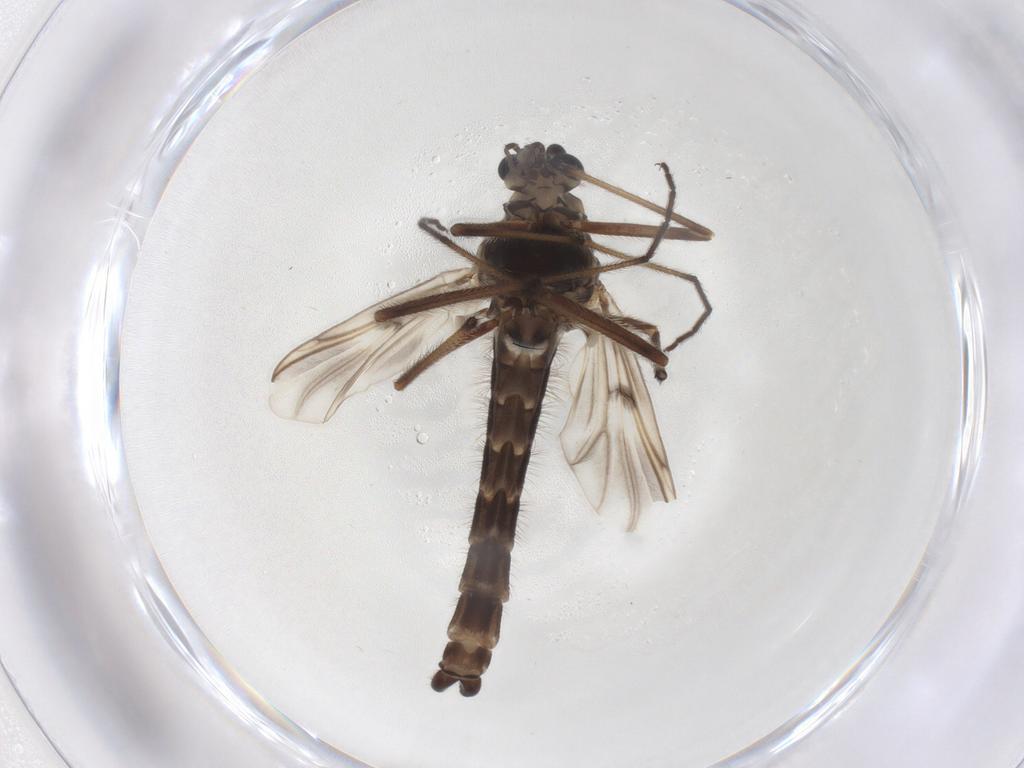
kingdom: Animalia
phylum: Arthropoda
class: Insecta
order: Diptera
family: Chironomidae
